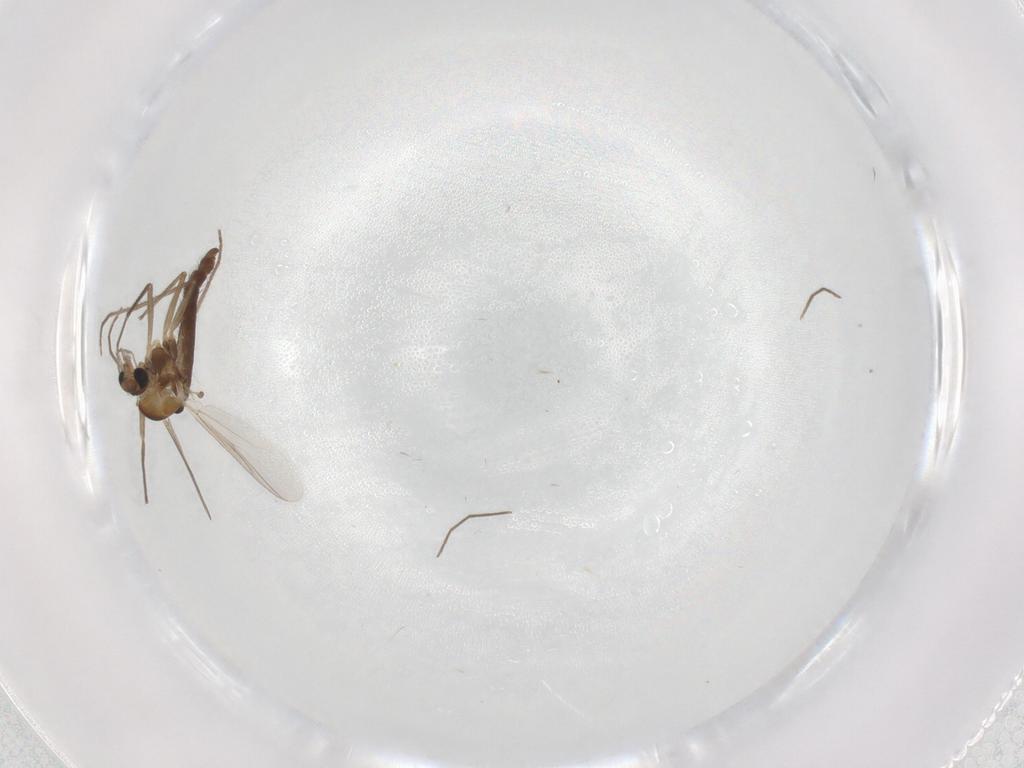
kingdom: Animalia
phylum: Arthropoda
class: Insecta
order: Diptera
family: Chironomidae
